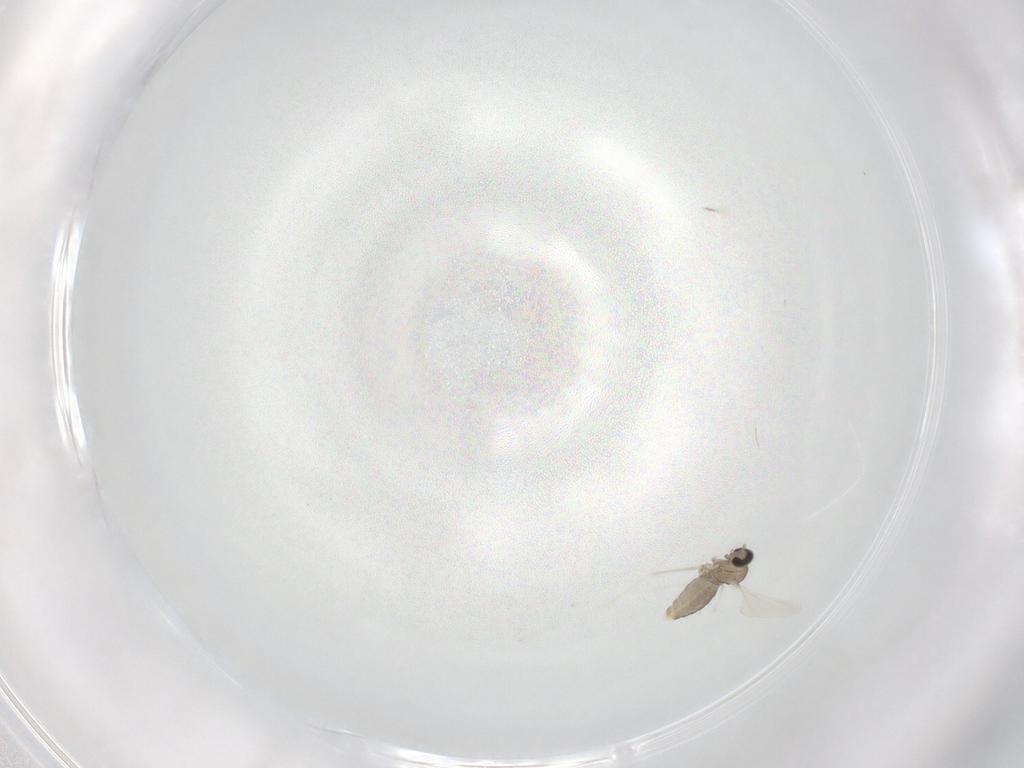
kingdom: Animalia
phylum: Arthropoda
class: Insecta
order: Diptera
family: Cecidomyiidae
